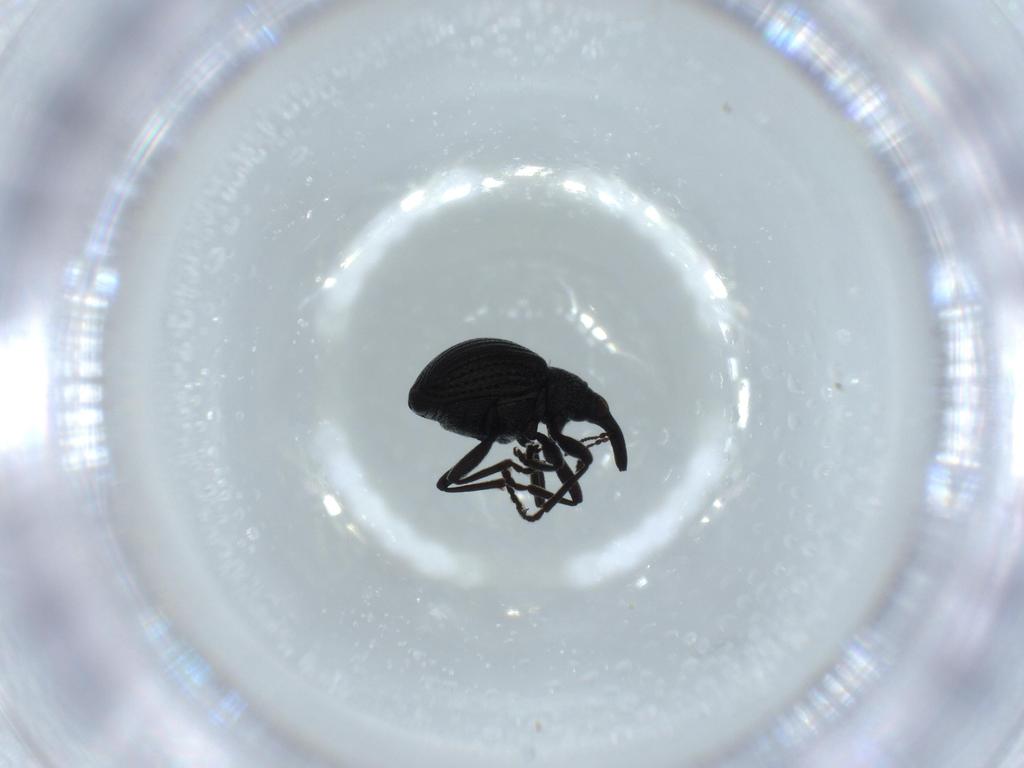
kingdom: Animalia
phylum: Arthropoda
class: Insecta
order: Coleoptera
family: Brentidae
